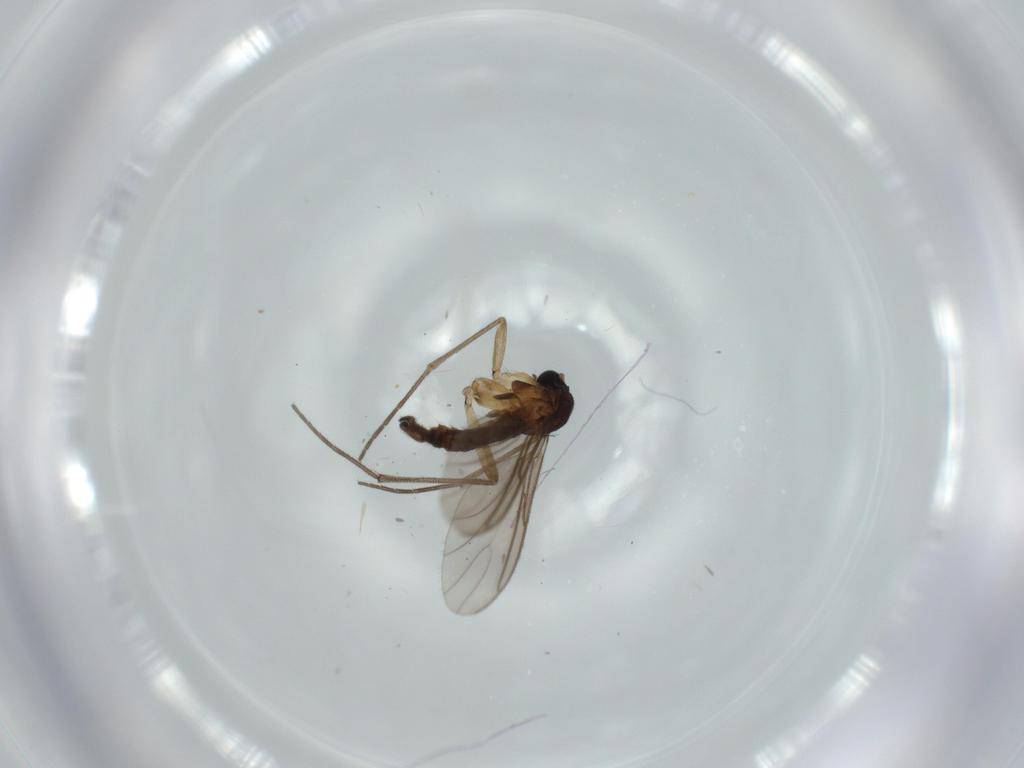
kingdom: Animalia
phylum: Arthropoda
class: Insecta
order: Diptera
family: Sciaridae
